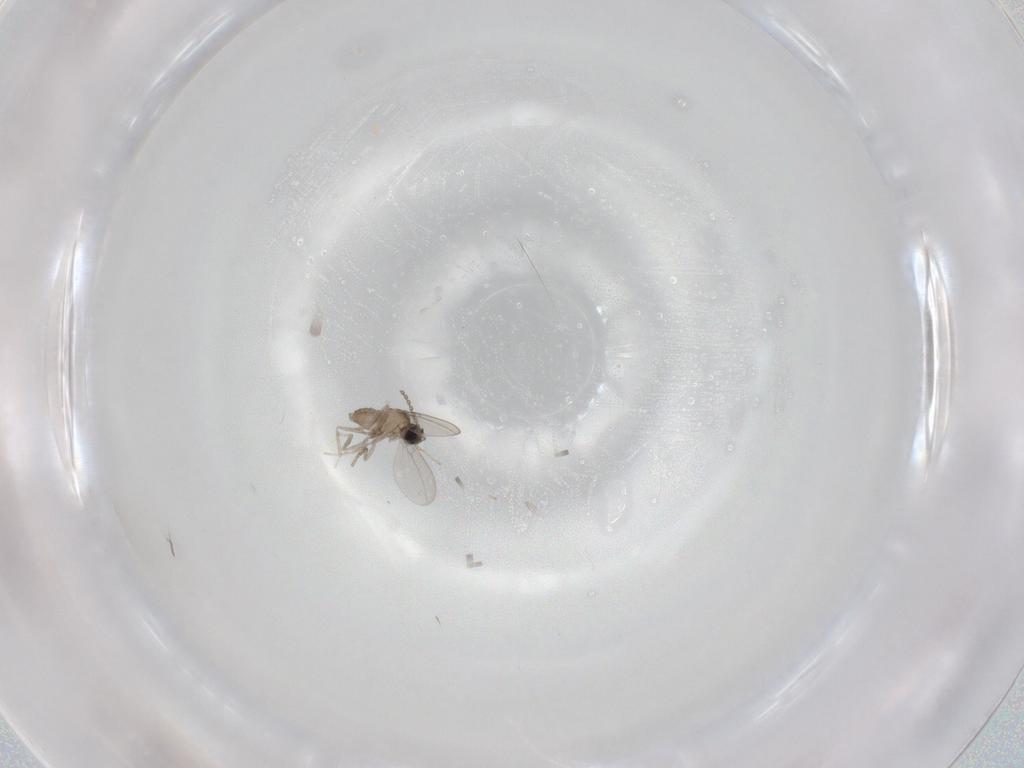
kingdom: Animalia
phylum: Arthropoda
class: Insecta
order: Diptera
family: Cecidomyiidae
